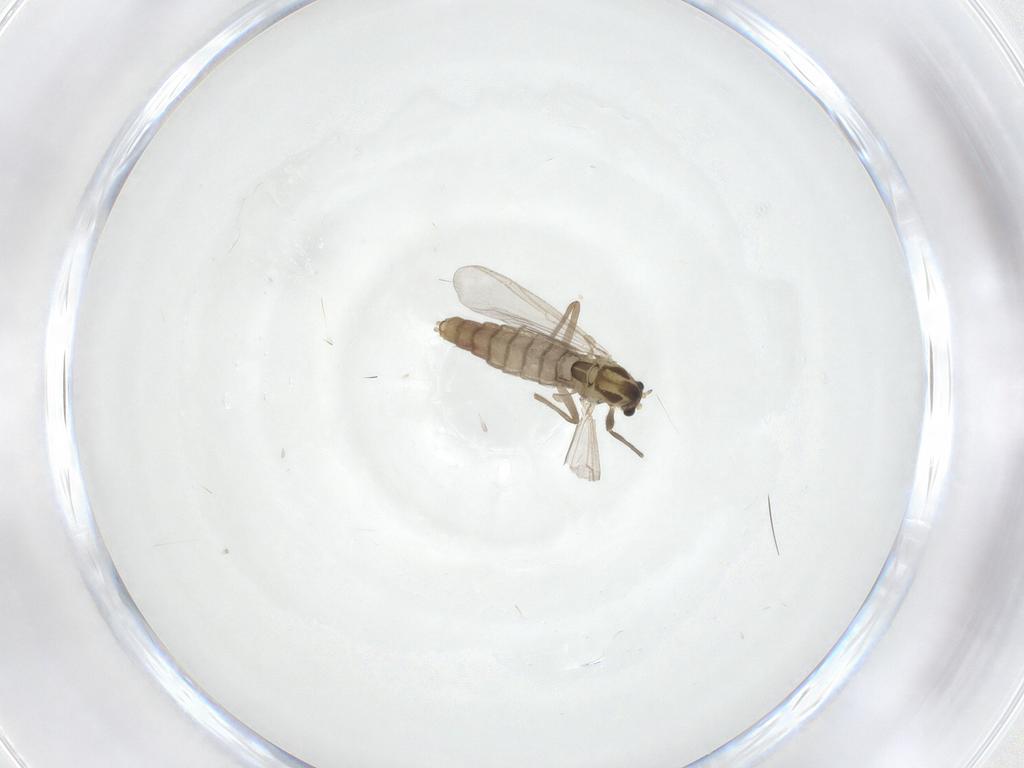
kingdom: Animalia
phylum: Arthropoda
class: Insecta
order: Diptera
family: Chironomidae
